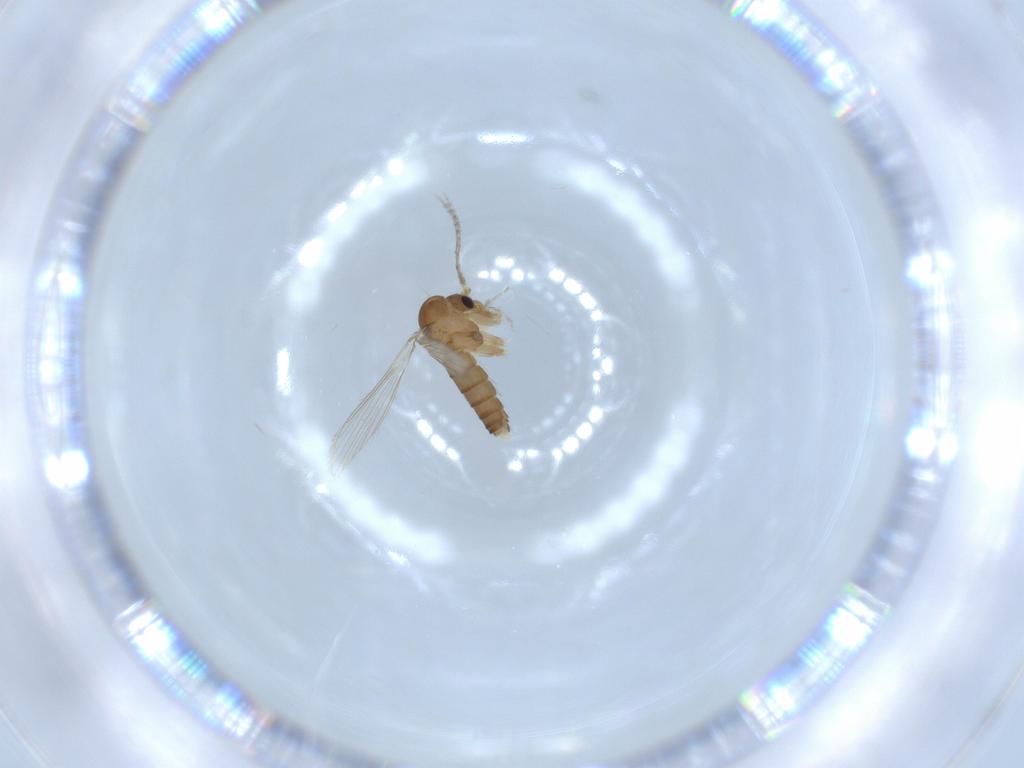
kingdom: Animalia
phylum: Arthropoda
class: Insecta
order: Diptera
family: Psychodidae
